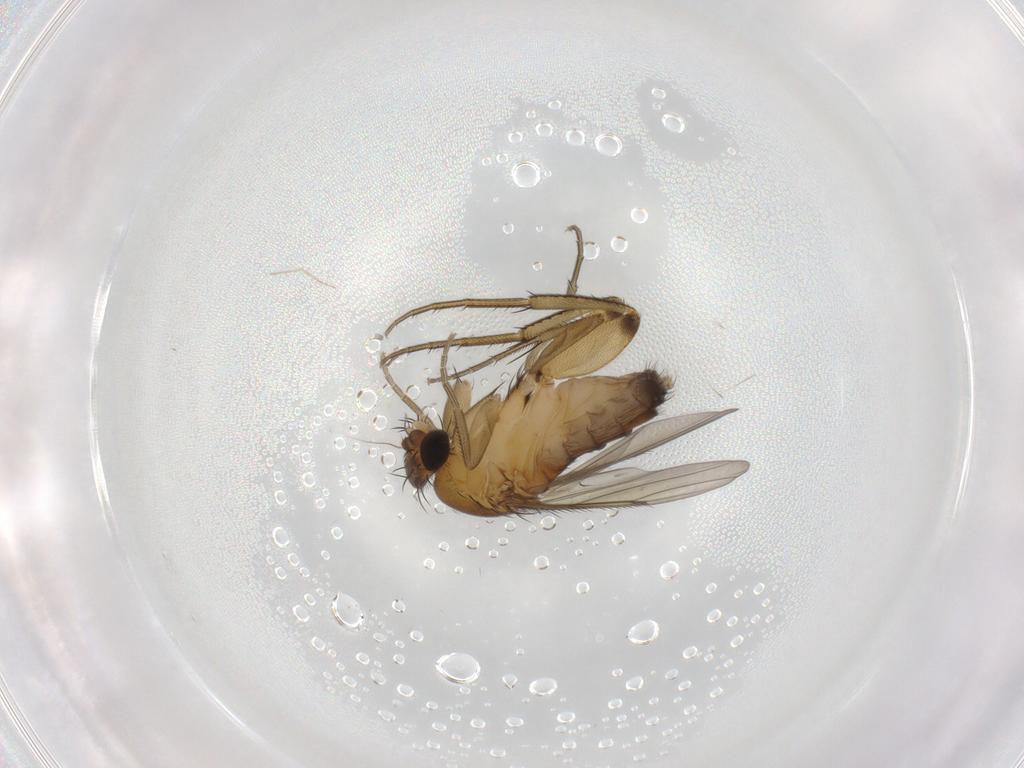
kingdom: Animalia
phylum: Arthropoda
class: Insecta
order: Diptera
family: Phoridae
